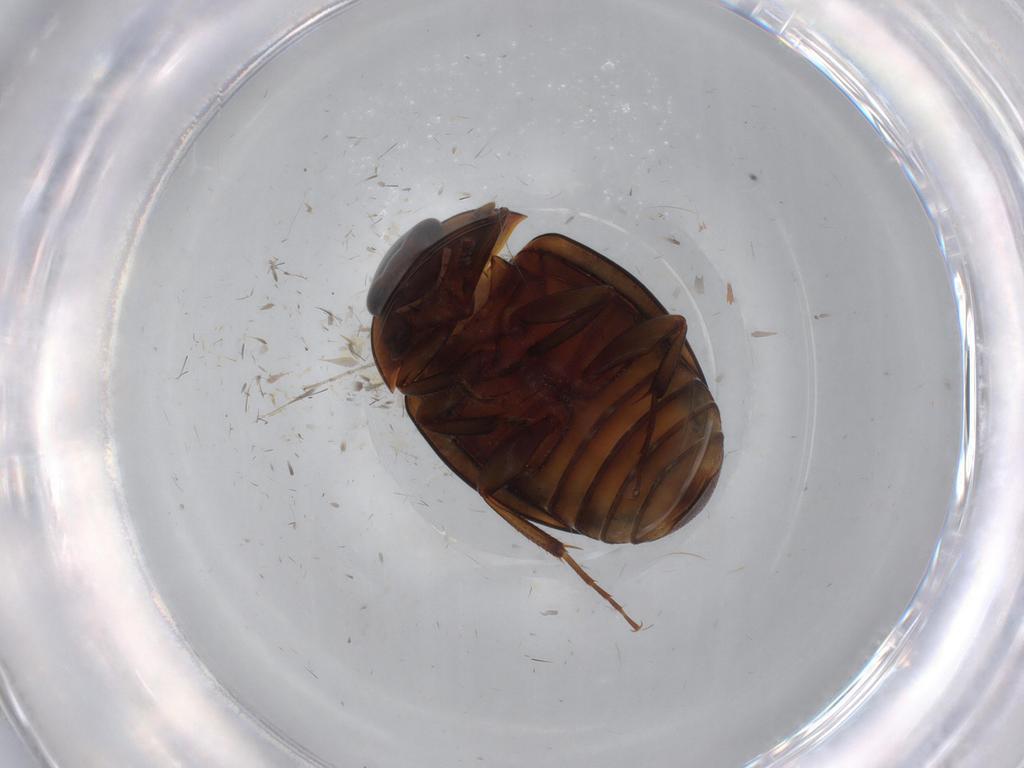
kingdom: Animalia
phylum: Arthropoda
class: Insecta
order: Coleoptera
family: Nitidulidae
